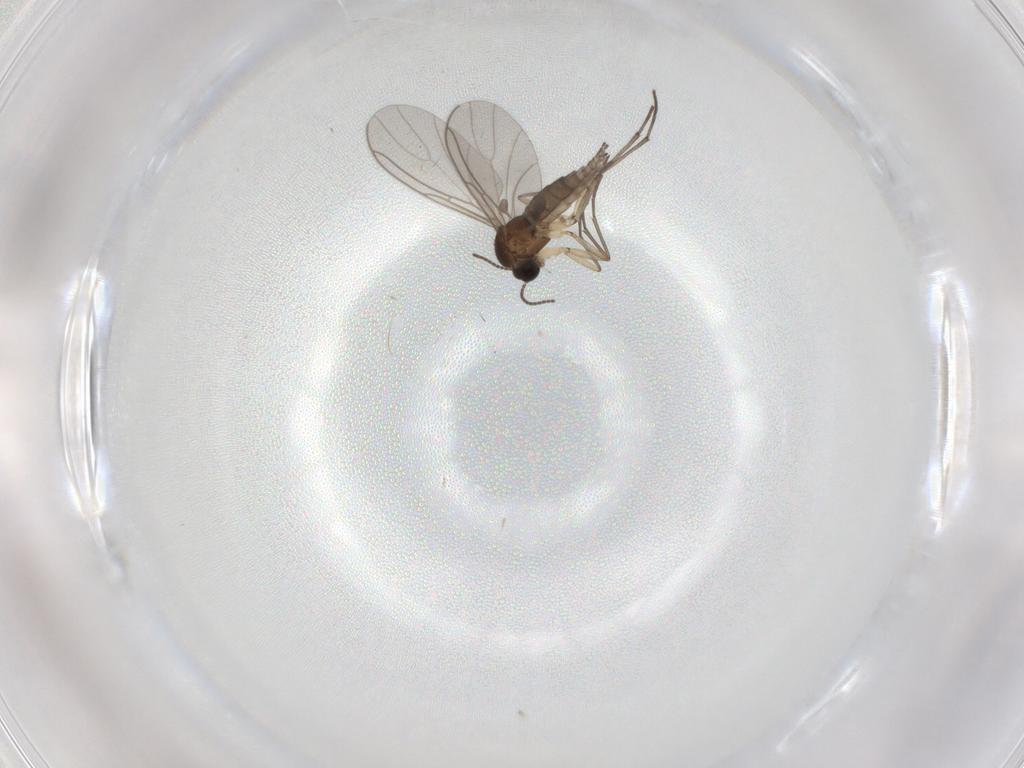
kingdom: Animalia
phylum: Arthropoda
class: Insecta
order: Diptera
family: Sciaridae
